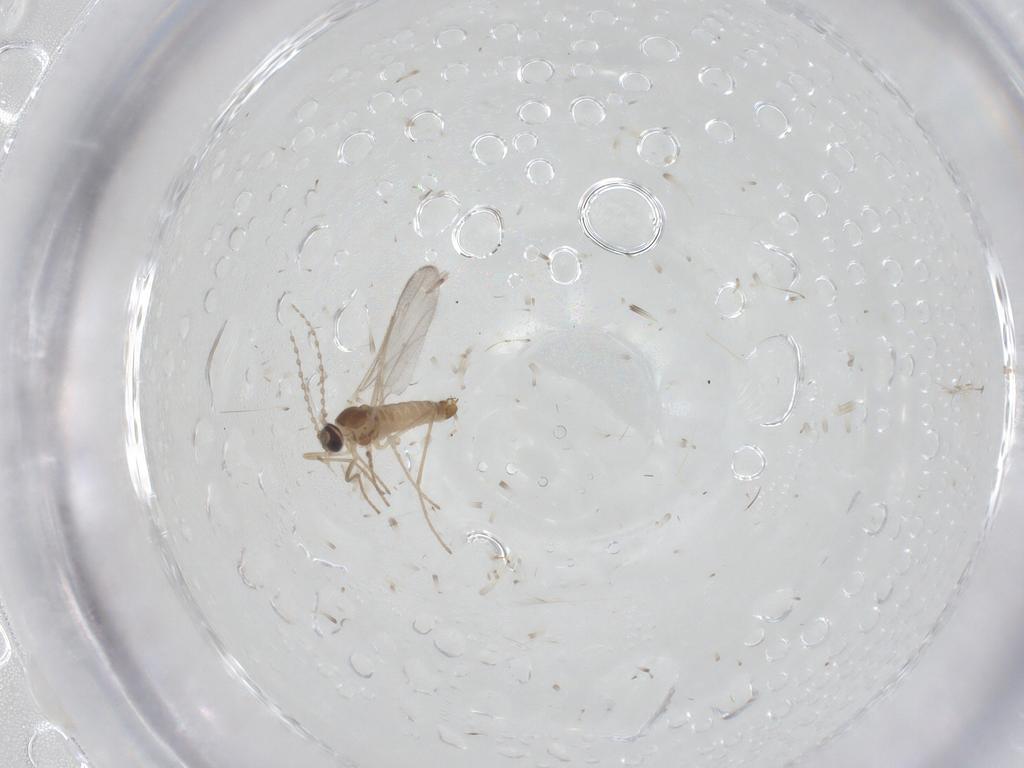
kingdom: Animalia
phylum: Arthropoda
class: Insecta
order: Diptera
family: Cecidomyiidae
